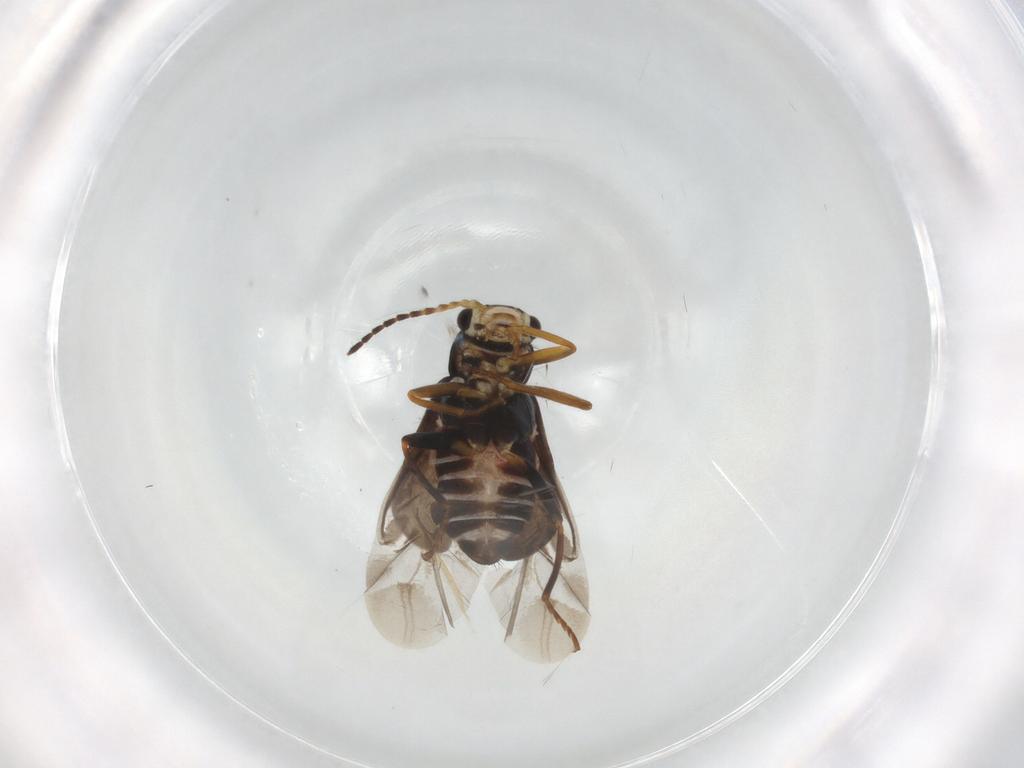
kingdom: Animalia
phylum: Arthropoda
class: Insecta
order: Coleoptera
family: Melyridae
